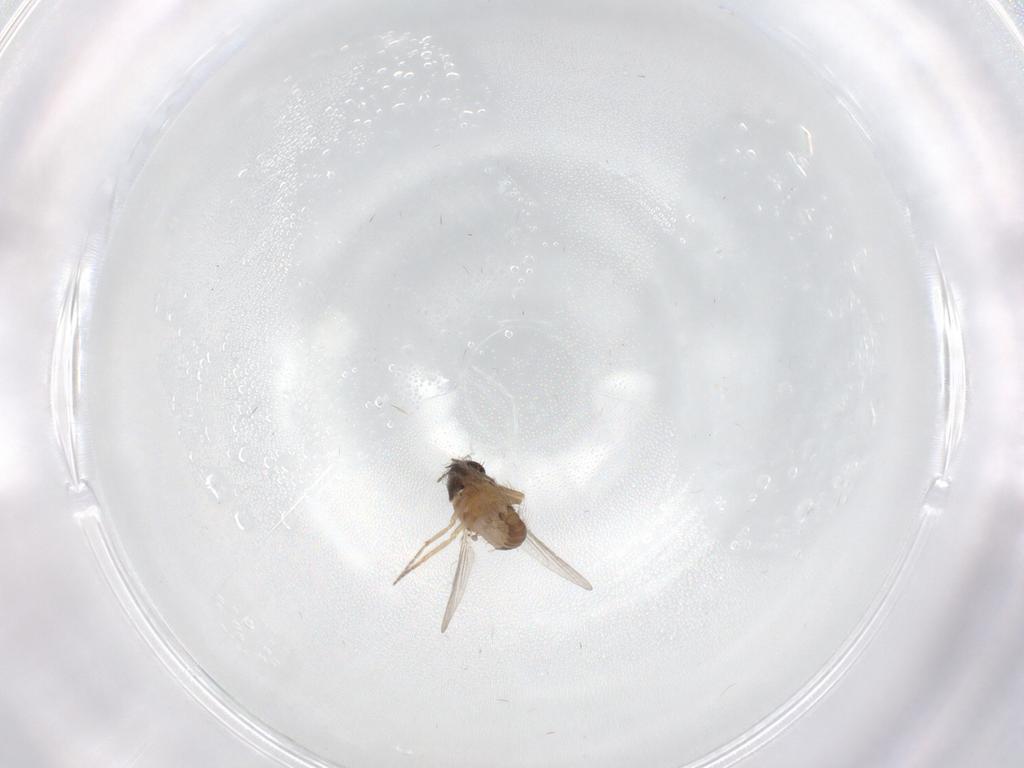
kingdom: Animalia
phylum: Arthropoda
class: Insecta
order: Diptera
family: Ceratopogonidae
